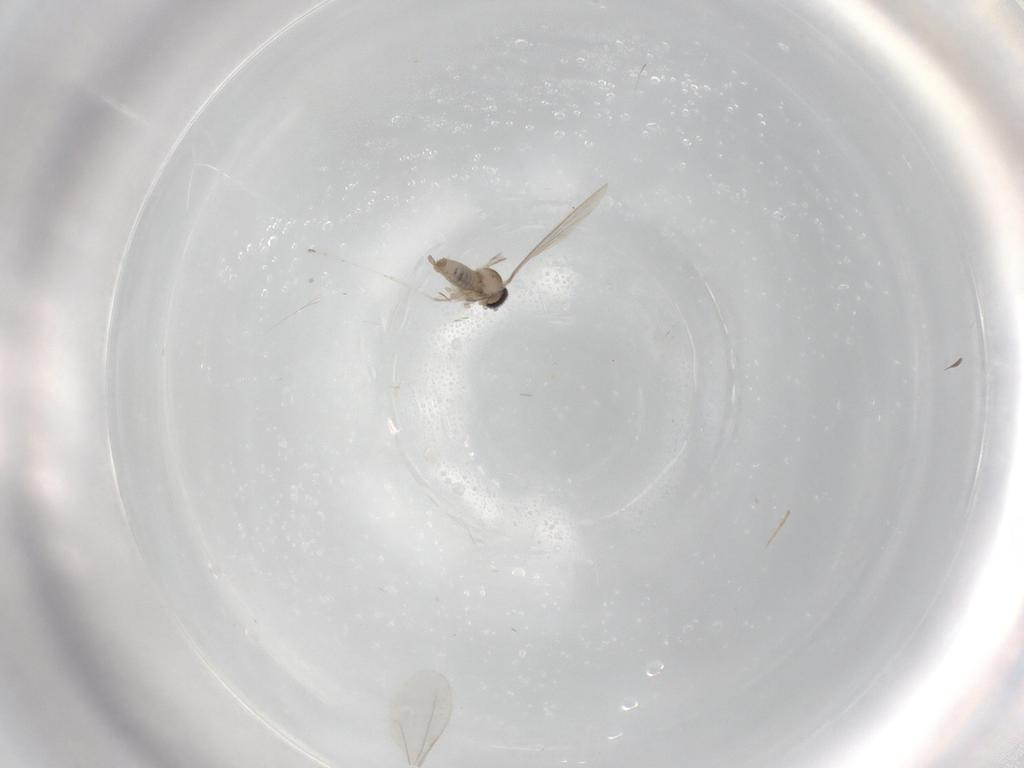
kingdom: Animalia
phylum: Arthropoda
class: Insecta
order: Diptera
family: Cecidomyiidae
